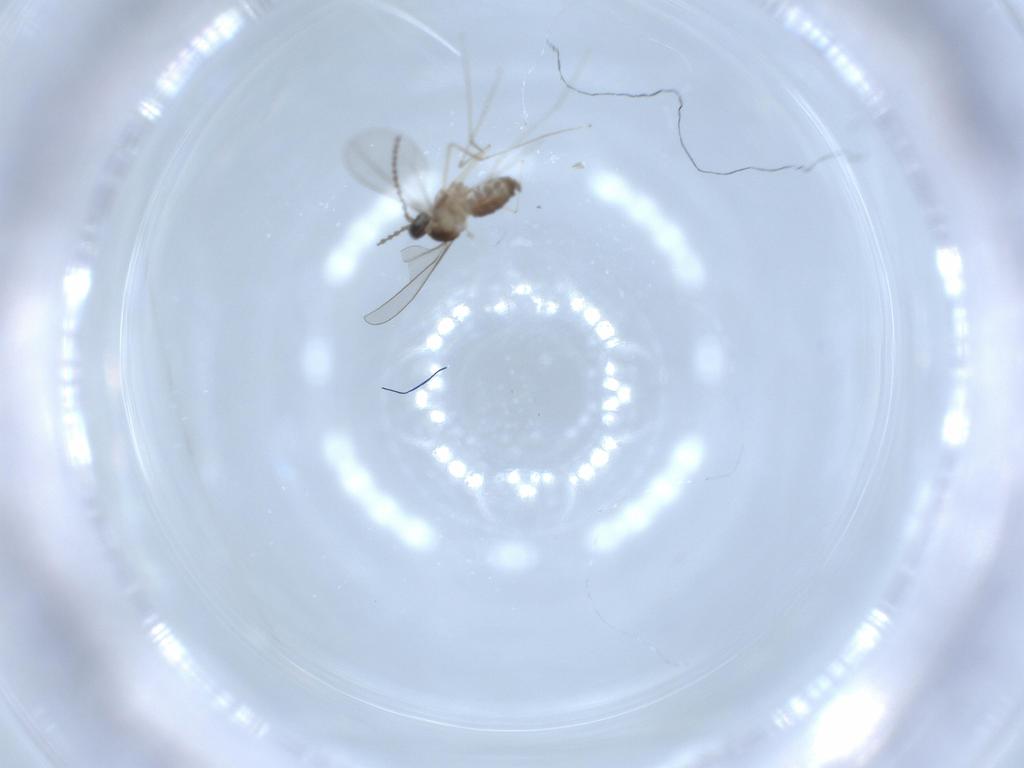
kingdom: Animalia
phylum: Arthropoda
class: Insecta
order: Diptera
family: Cecidomyiidae
